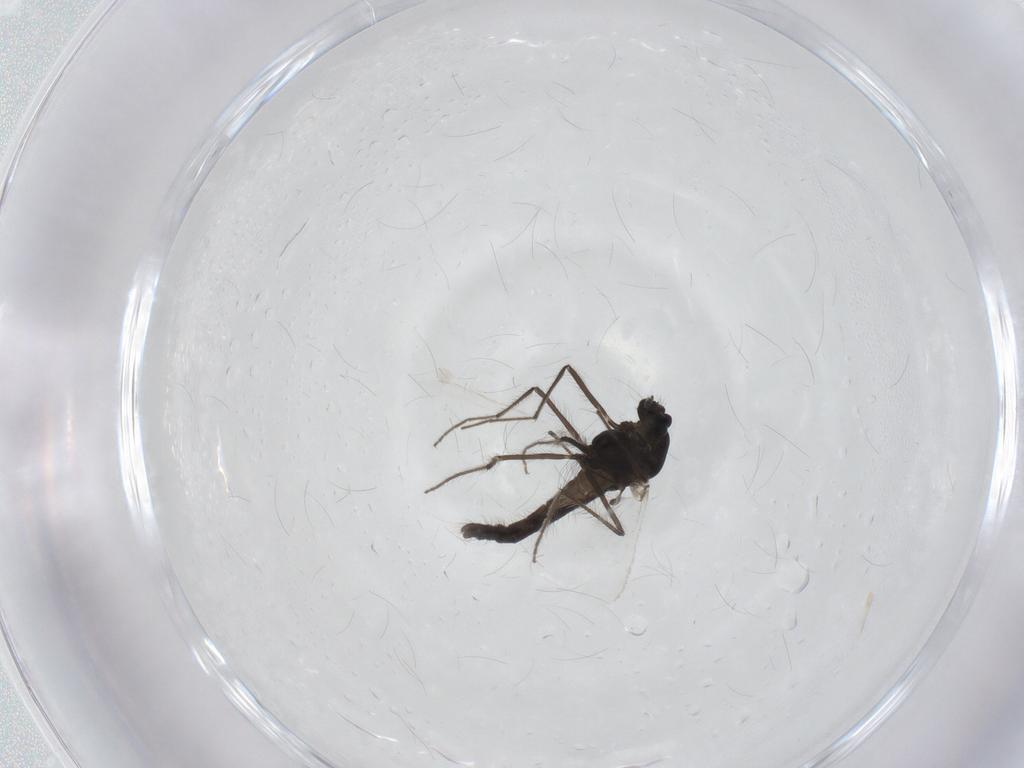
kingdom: Animalia
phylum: Arthropoda
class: Insecta
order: Diptera
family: Chironomidae
